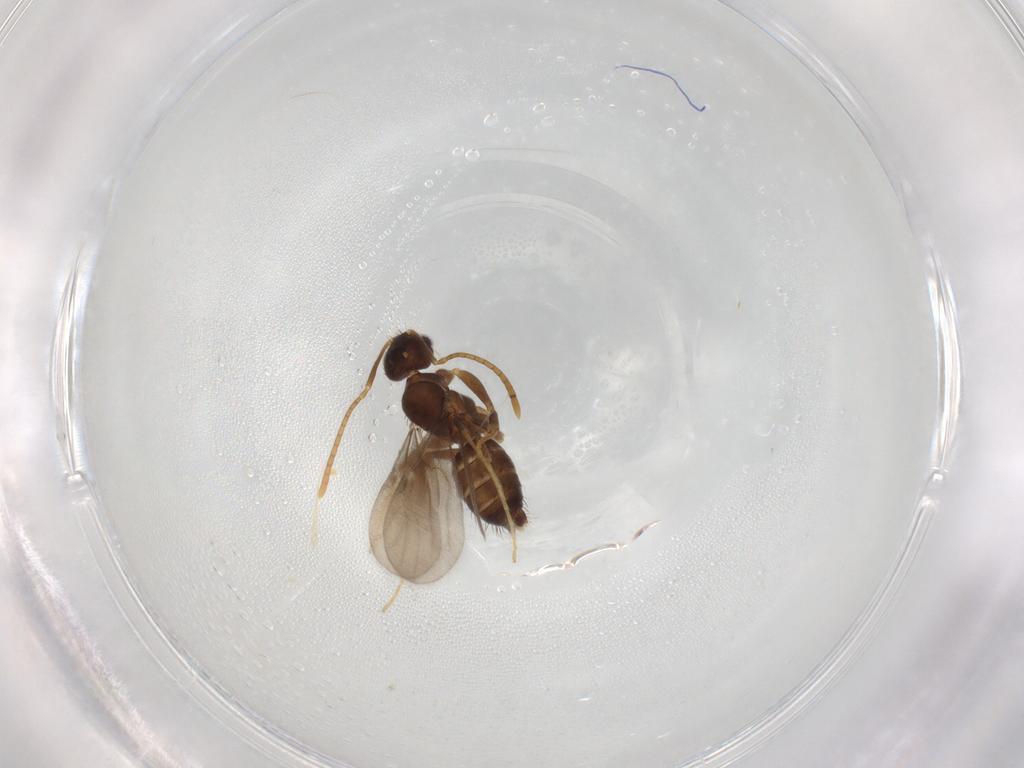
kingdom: Animalia
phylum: Arthropoda
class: Insecta
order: Hymenoptera
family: Formicidae
